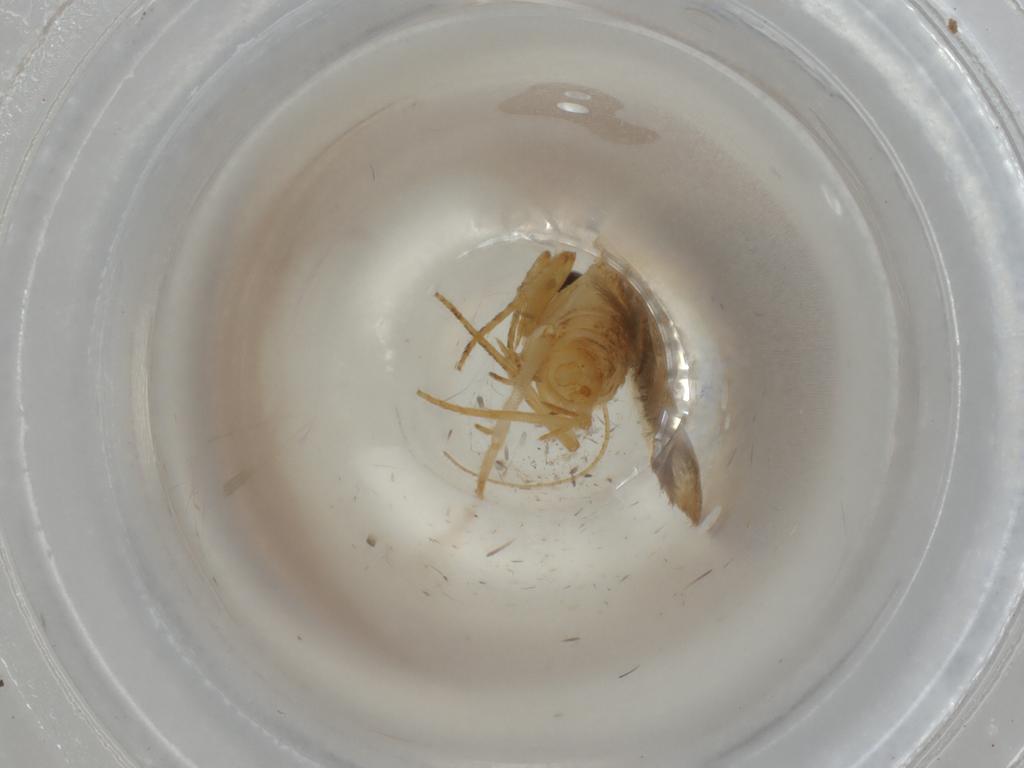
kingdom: Animalia
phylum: Arthropoda
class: Insecta
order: Lepidoptera
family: Gelechiidae
